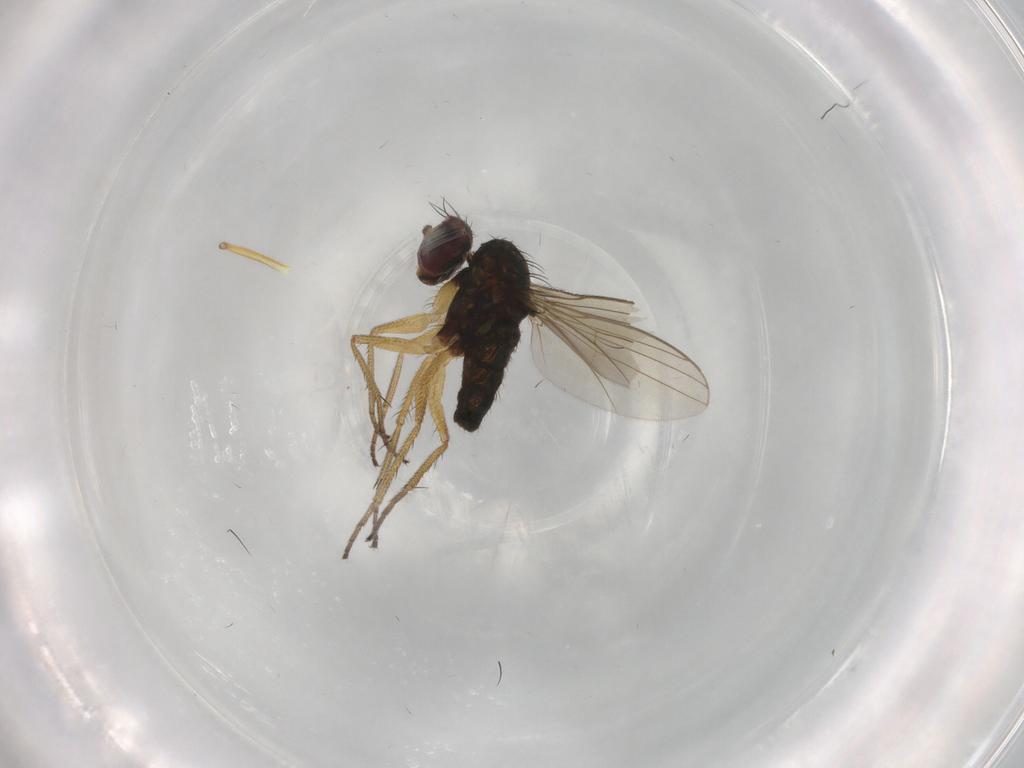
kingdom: Animalia
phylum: Arthropoda
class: Insecta
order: Diptera
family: Dolichopodidae
